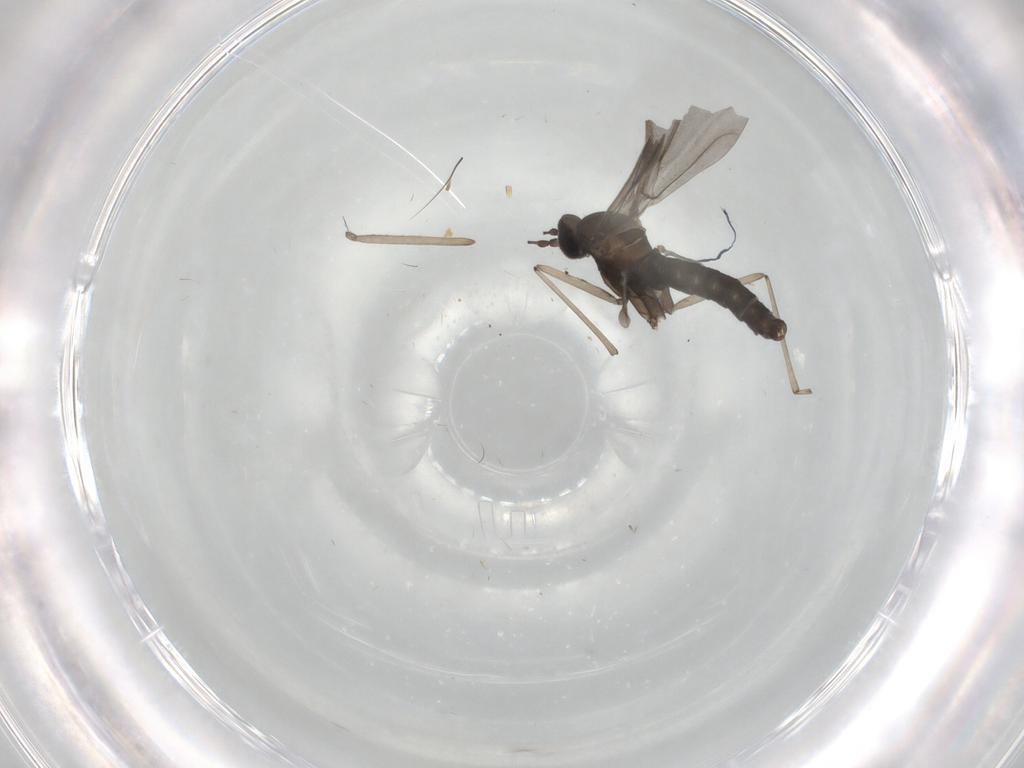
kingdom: Animalia
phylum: Arthropoda
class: Insecta
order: Diptera
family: Cecidomyiidae
